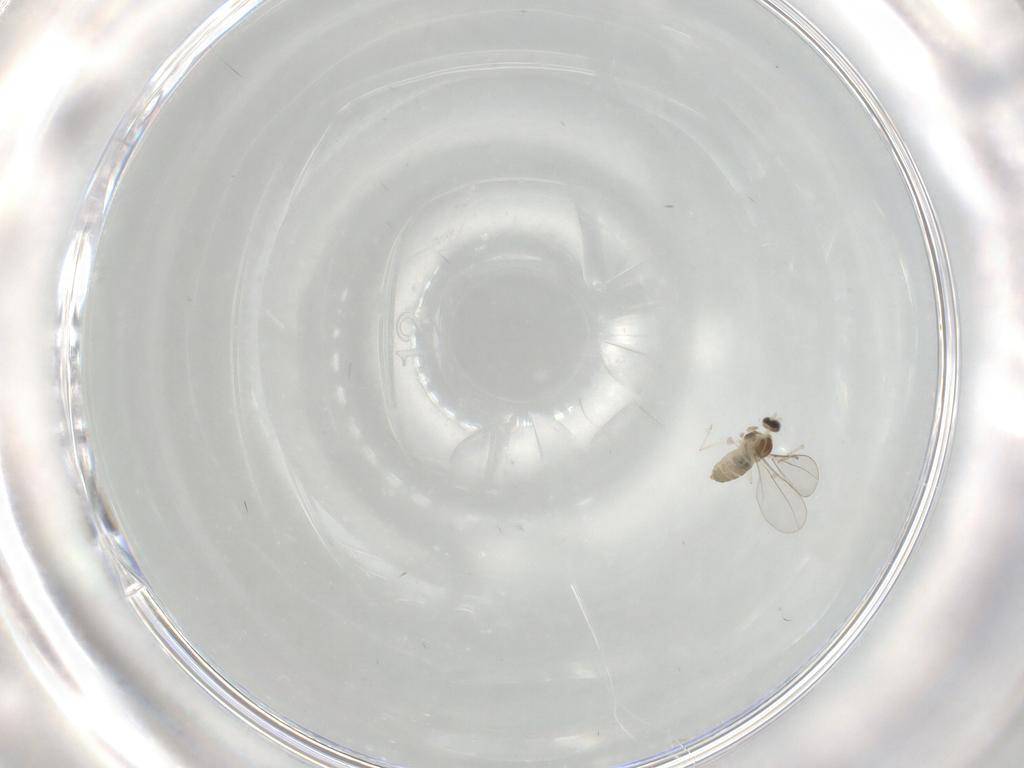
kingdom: Animalia
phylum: Arthropoda
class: Insecta
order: Diptera
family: Cecidomyiidae
